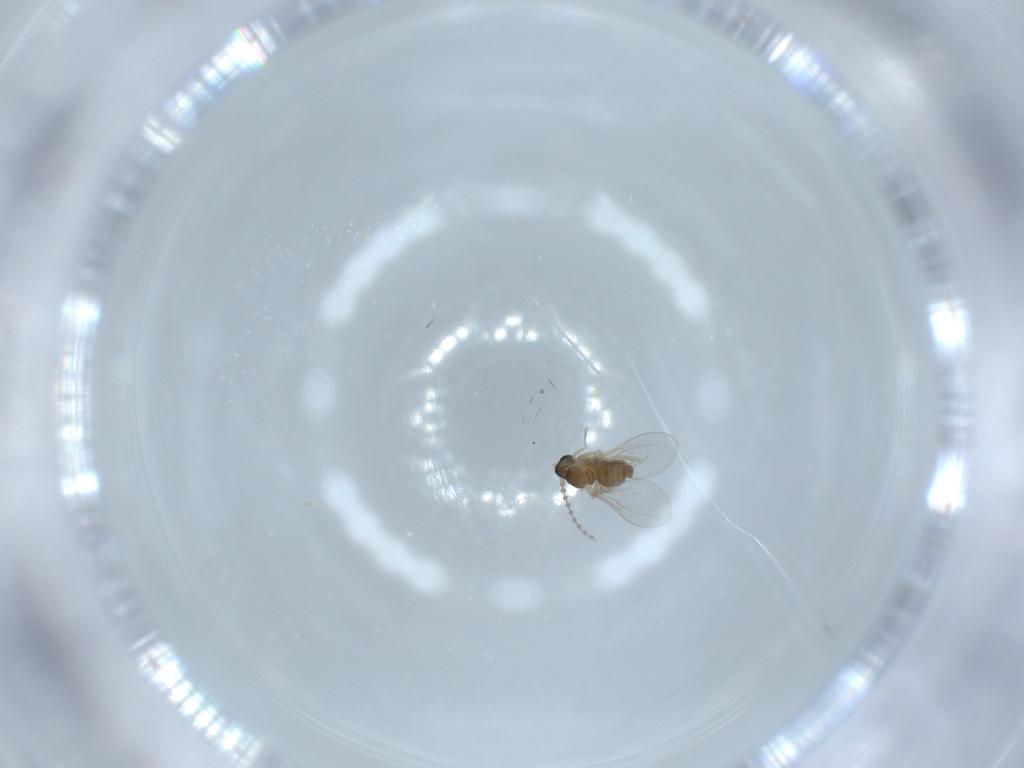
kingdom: Animalia
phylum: Arthropoda
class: Insecta
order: Diptera
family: Cecidomyiidae
